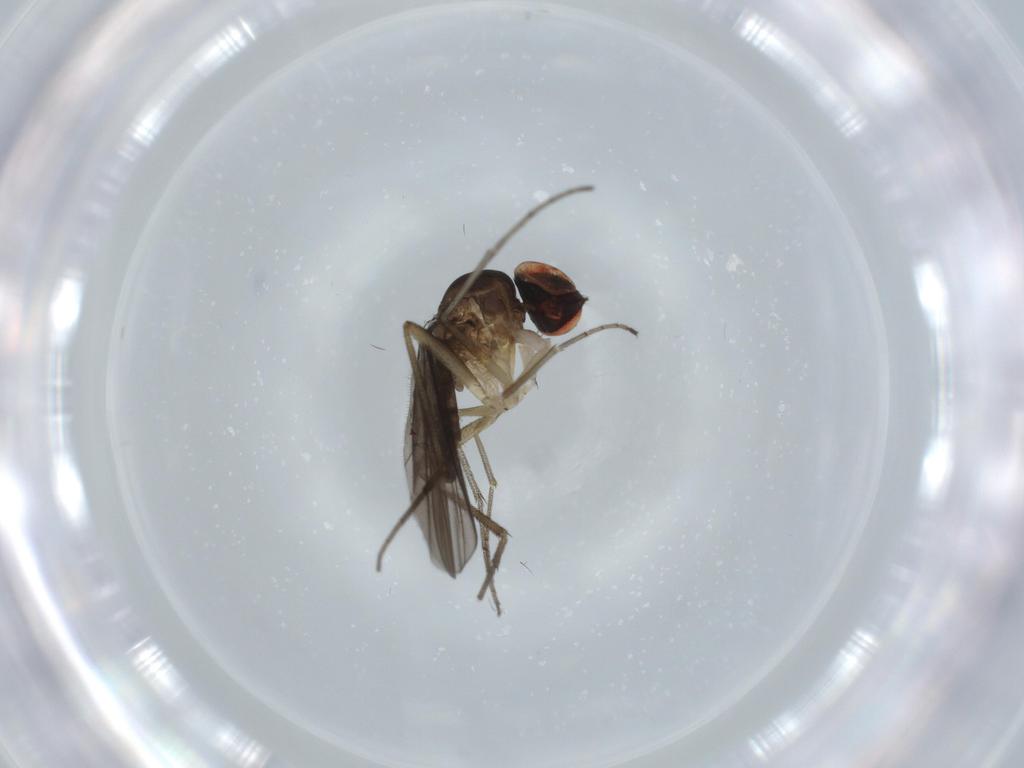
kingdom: Animalia
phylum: Arthropoda
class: Insecta
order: Diptera
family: Dolichopodidae
